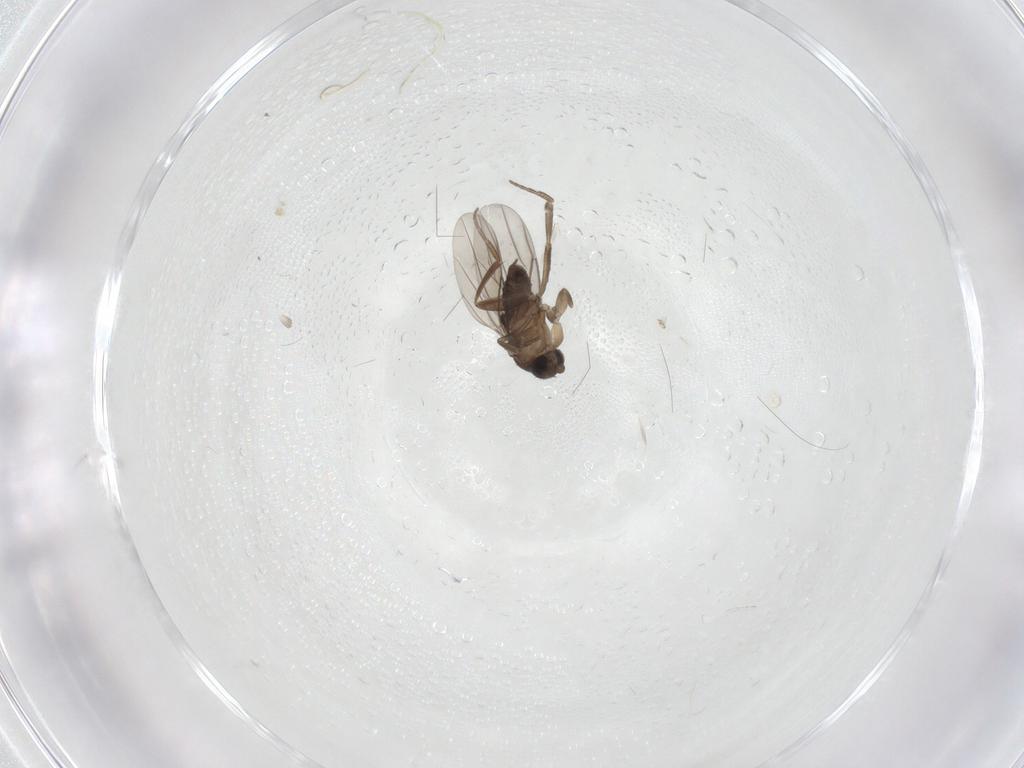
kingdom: Animalia
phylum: Arthropoda
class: Insecta
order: Diptera
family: Phoridae
